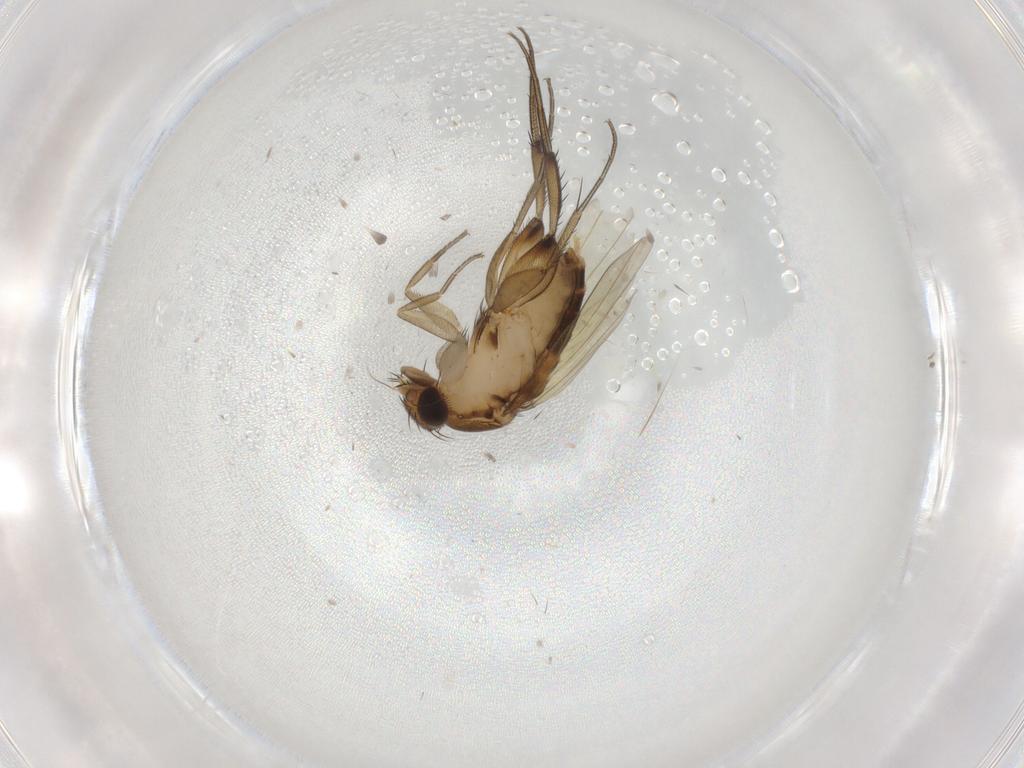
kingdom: Animalia
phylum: Arthropoda
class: Insecta
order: Diptera
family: Phoridae
